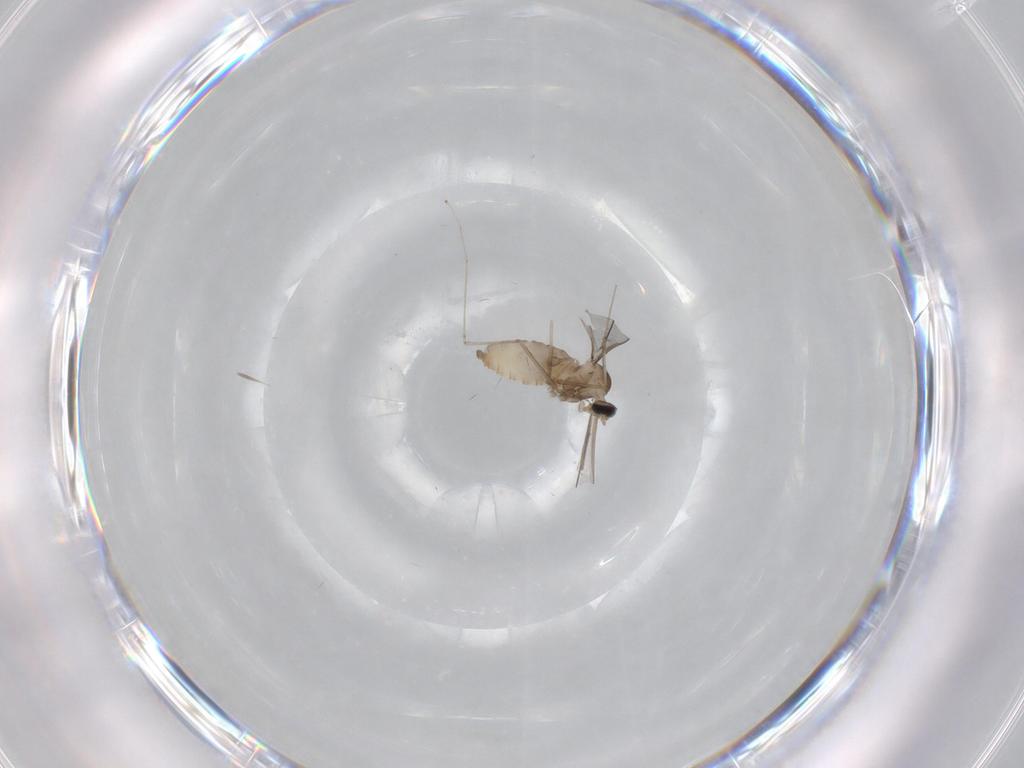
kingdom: Animalia
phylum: Arthropoda
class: Insecta
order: Diptera
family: Cecidomyiidae
